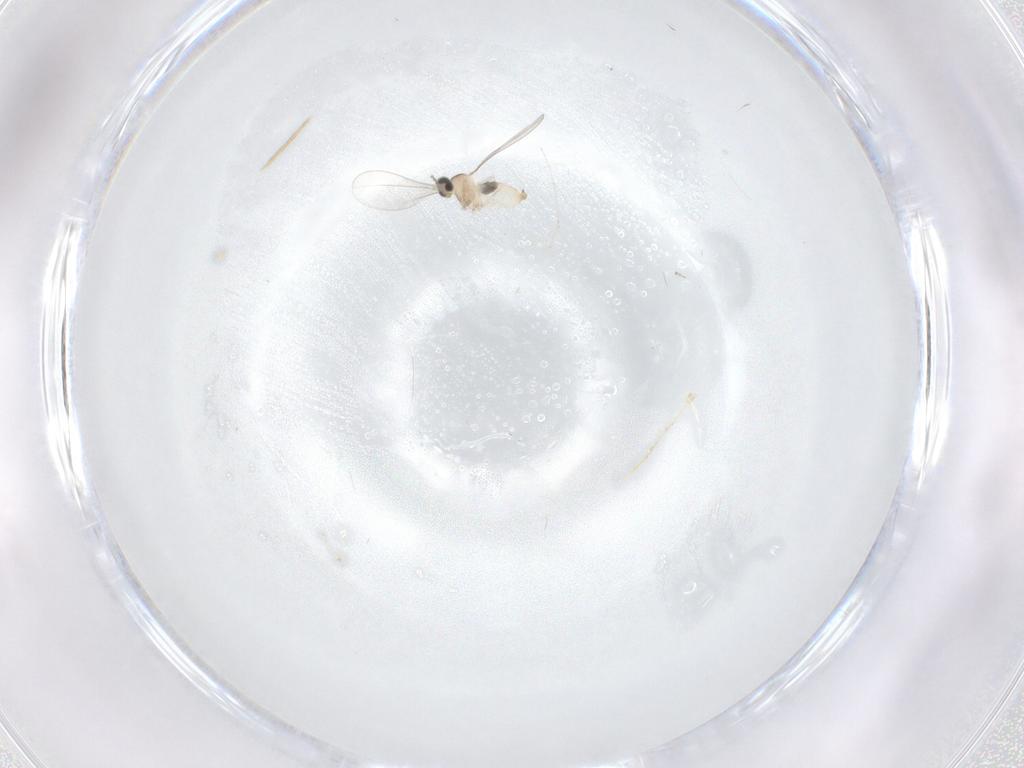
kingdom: Animalia
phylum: Arthropoda
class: Insecta
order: Diptera
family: Cecidomyiidae
